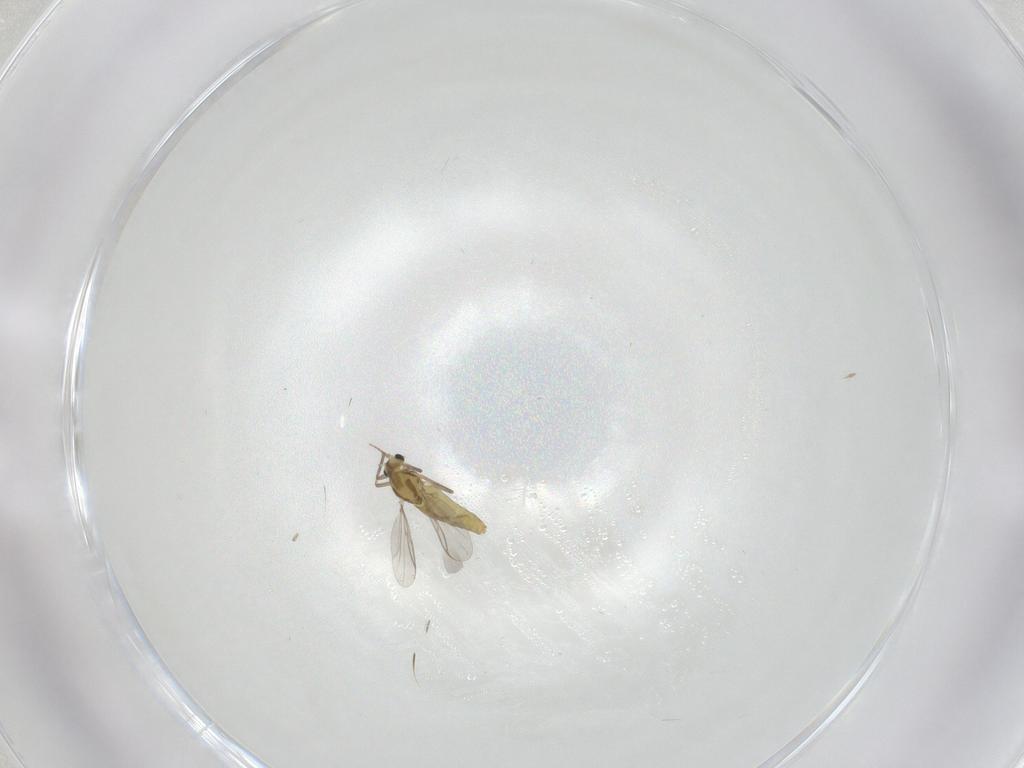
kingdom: Animalia
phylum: Arthropoda
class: Insecta
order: Diptera
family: Chironomidae
